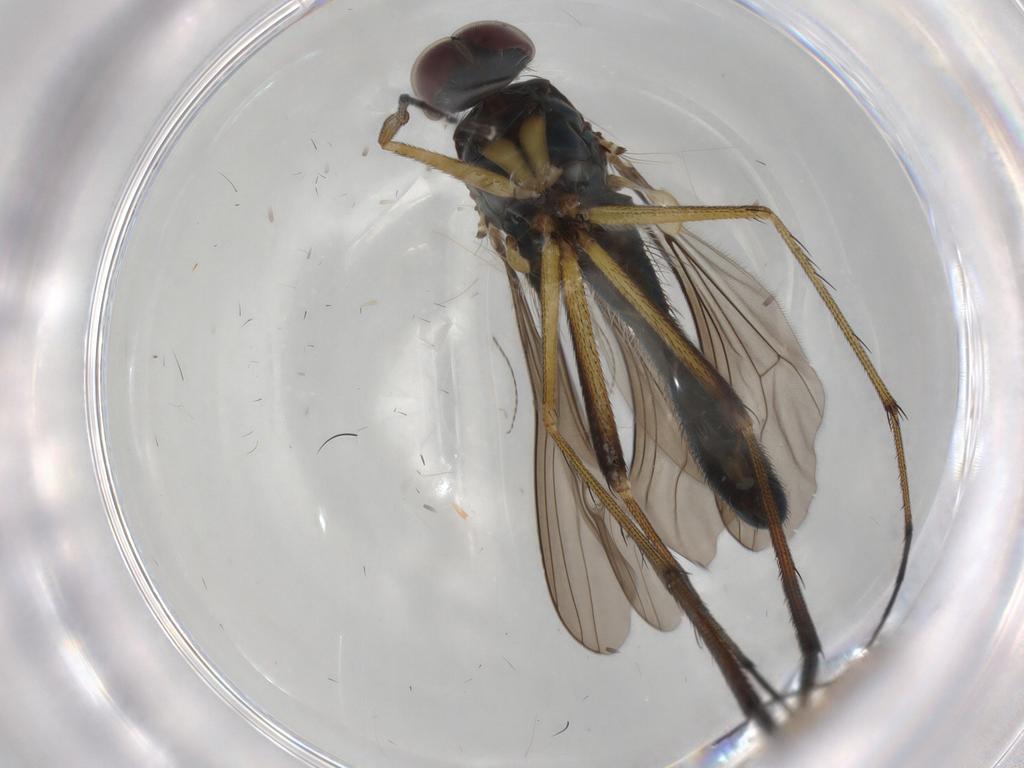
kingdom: Animalia
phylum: Arthropoda
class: Insecta
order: Diptera
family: Dolichopodidae
